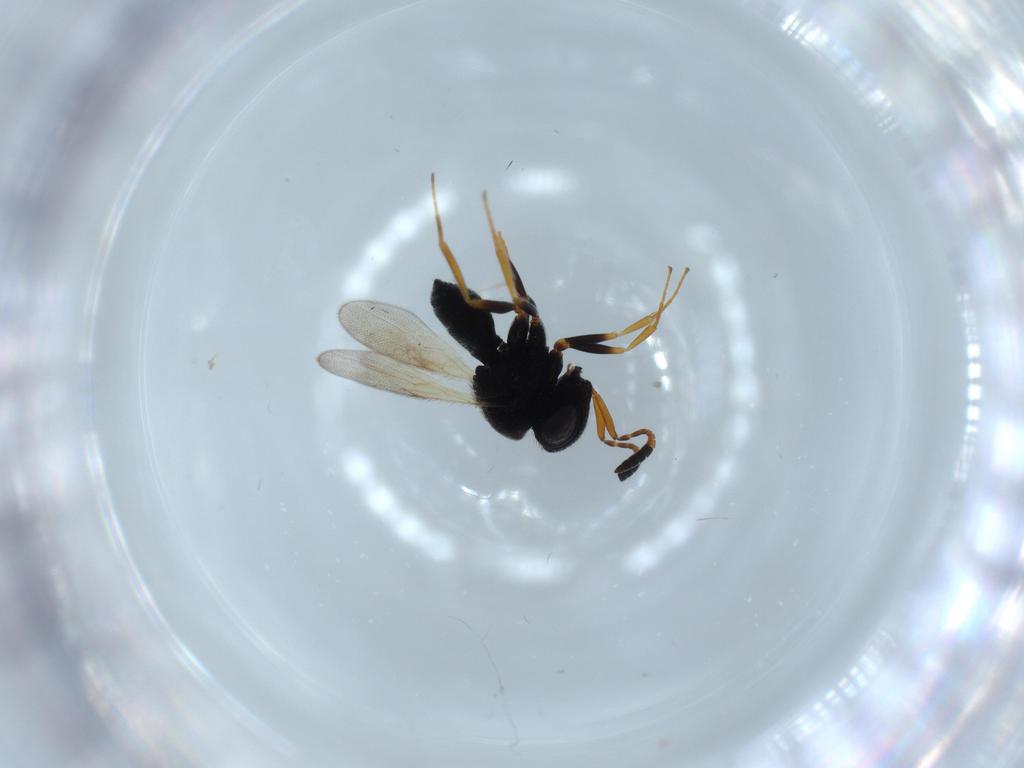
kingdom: Animalia
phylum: Arthropoda
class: Insecta
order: Hymenoptera
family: Scelionidae
